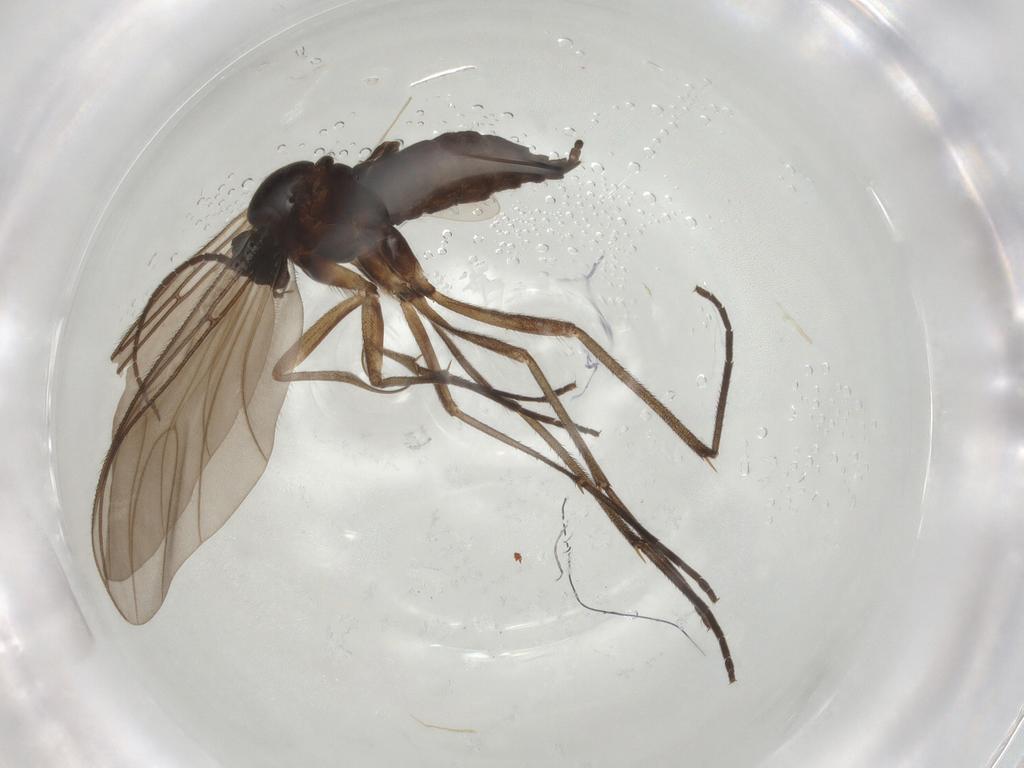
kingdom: Animalia
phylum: Arthropoda
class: Insecta
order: Diptera
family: Sciaridae
